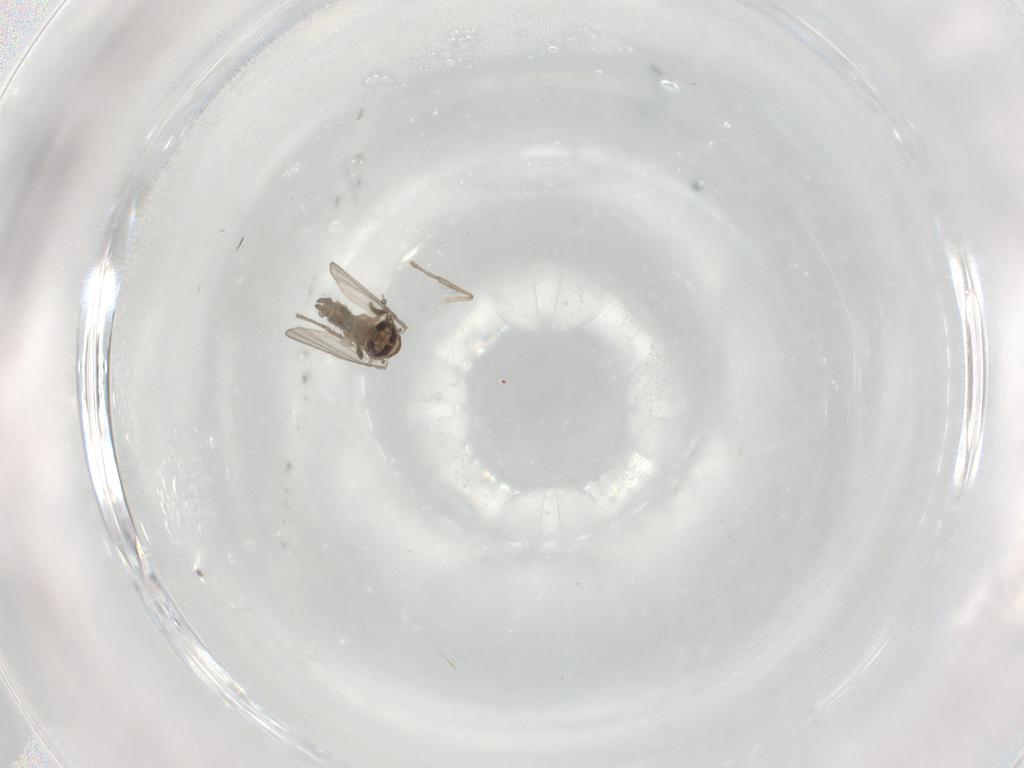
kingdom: Animalia
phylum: Arthropoda
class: Insecta
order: Diptera
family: Psychodidae
